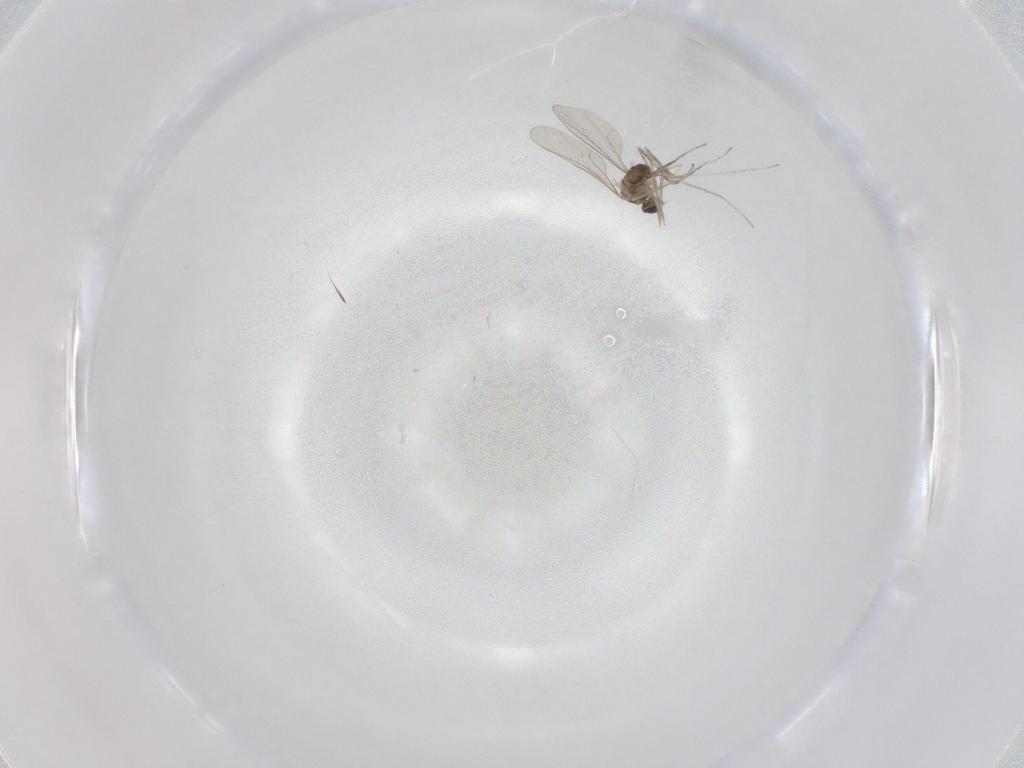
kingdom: Animalia
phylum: Arthropoda
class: Insecta
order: Diptera
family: Cecidomyiidae
